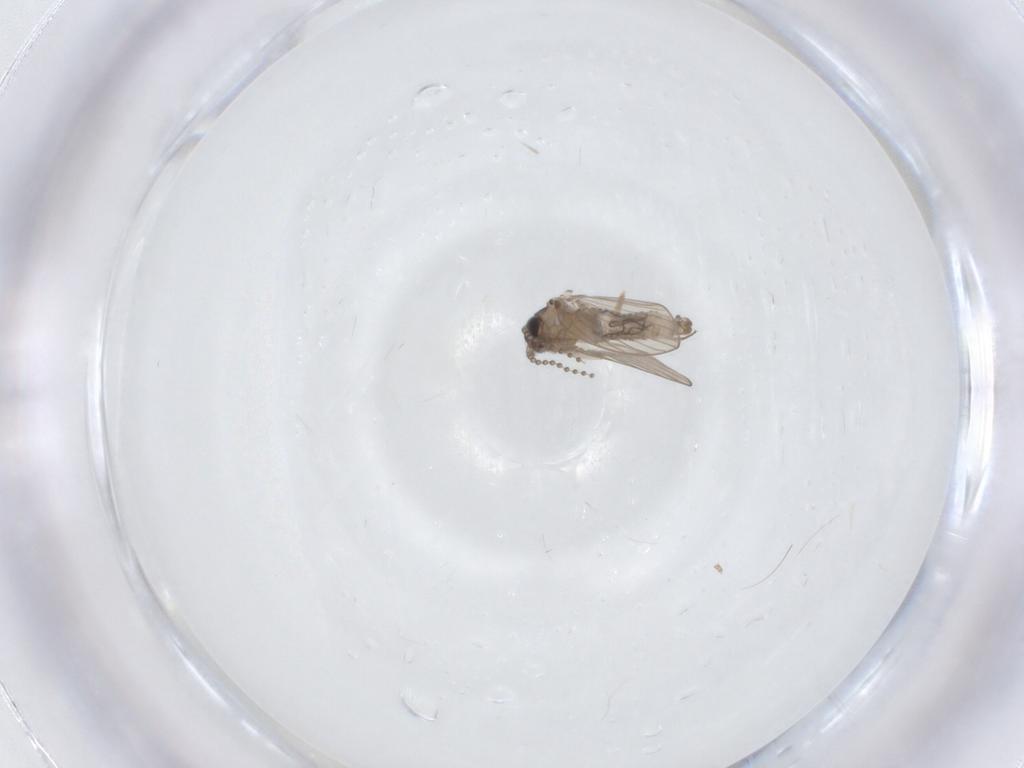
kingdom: Animalia
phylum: Arthropoda
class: Insecta
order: Diptera
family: Psychodidae
